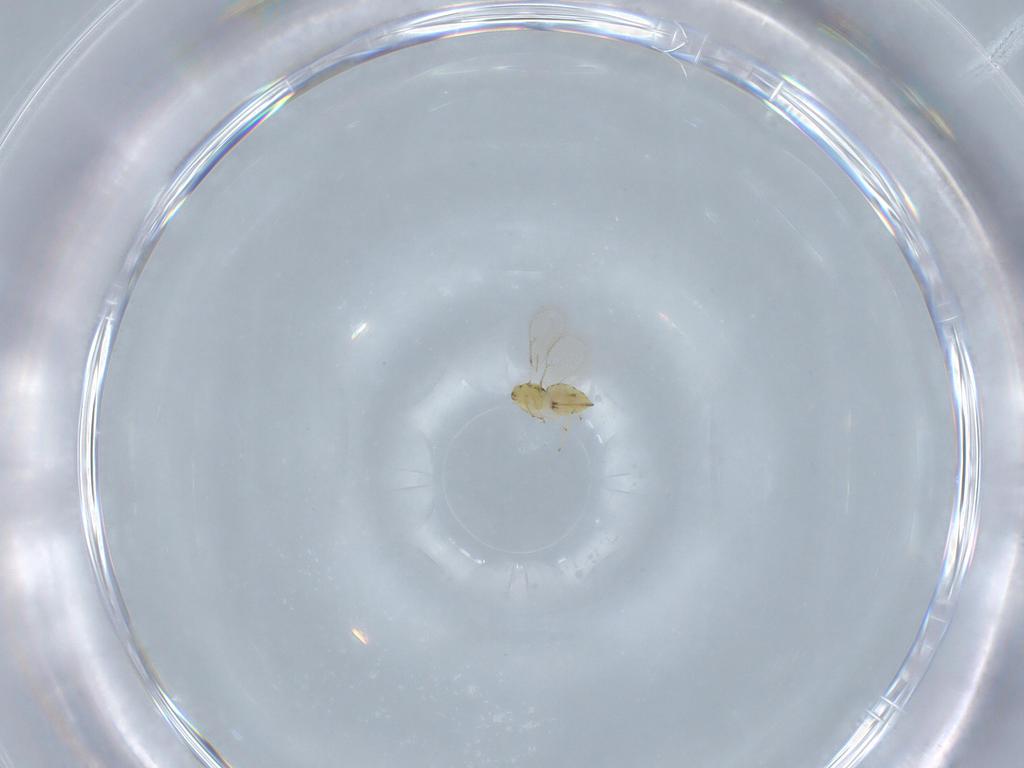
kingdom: Animalia
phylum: Arthropoda
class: Insecta
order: Hymenoptera
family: Eulophidae
